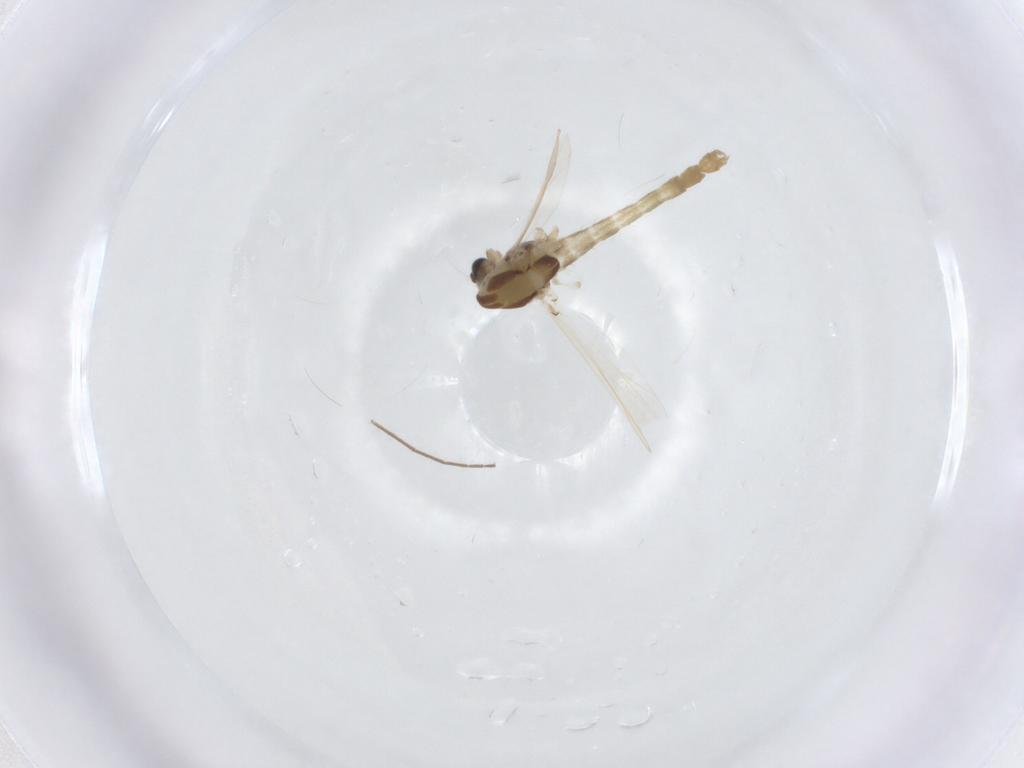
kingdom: Animalia
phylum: Arthropoda
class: Insecta
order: Diptera
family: Chironomidae
